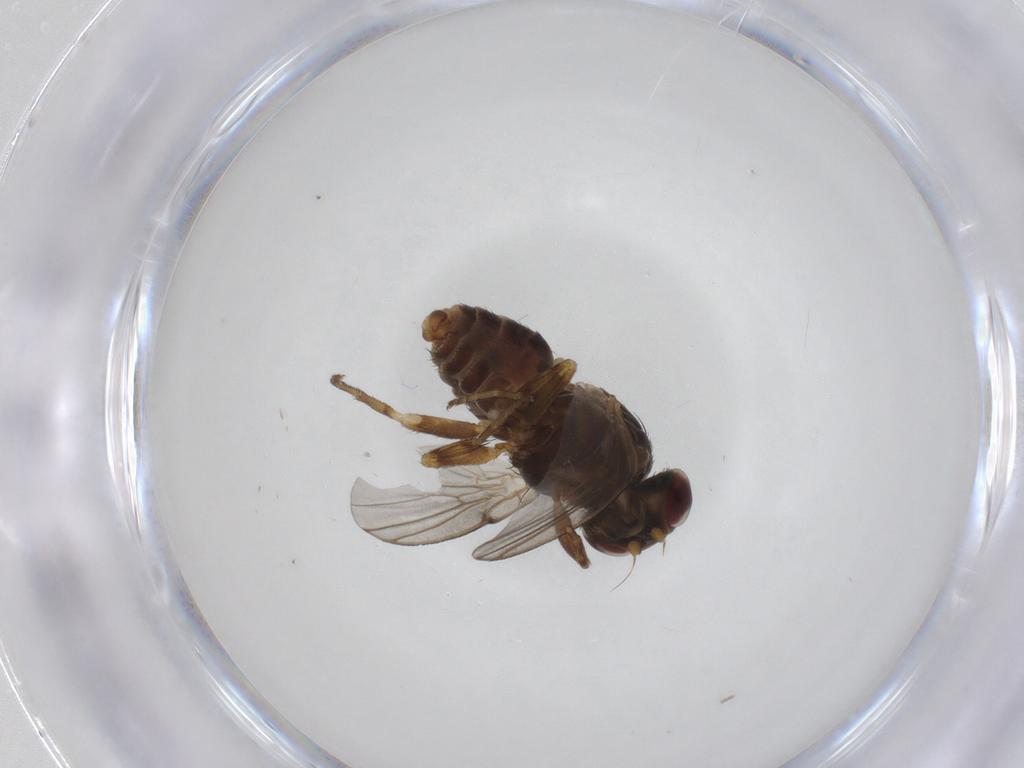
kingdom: Animalia
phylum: Arthropoda
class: Insecta
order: Diptera
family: Odiniidae
